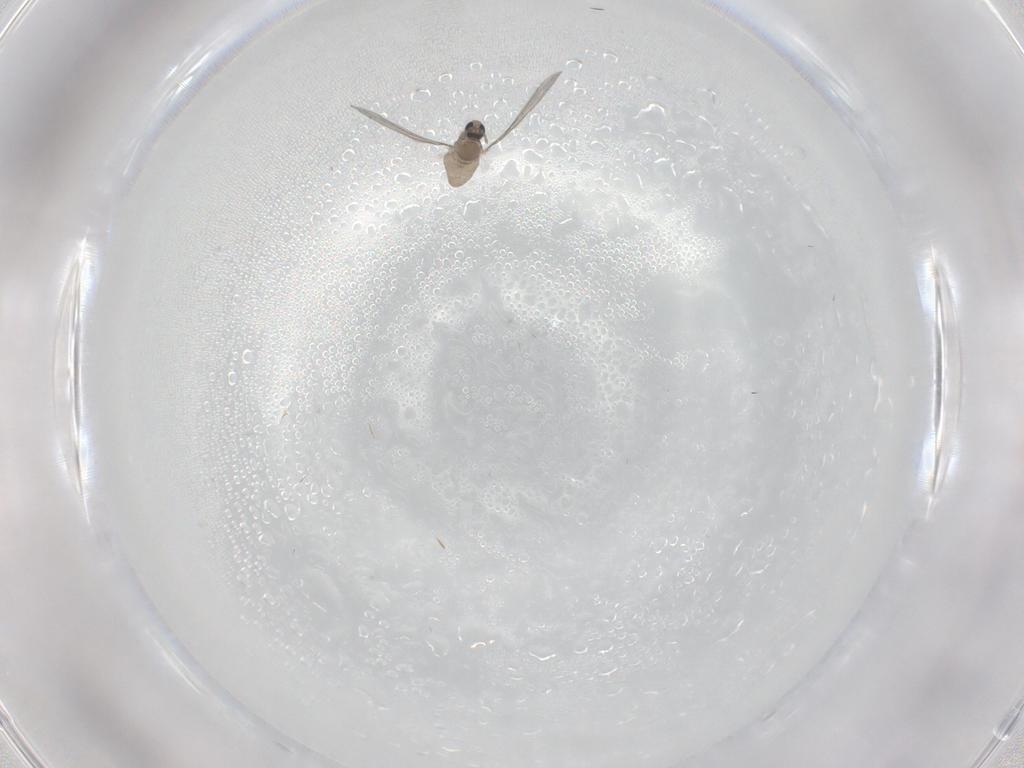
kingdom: Animalia
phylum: Arthropoda
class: Insecta
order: Diptera
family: Cecidomyiidae
